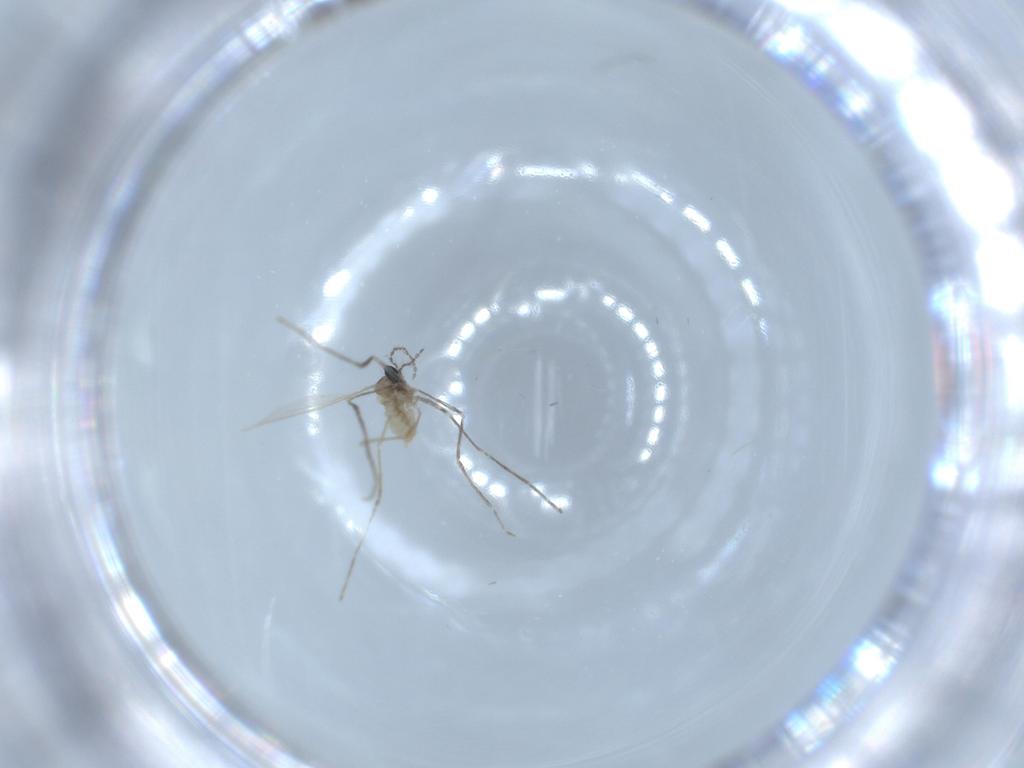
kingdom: Animalia
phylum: Arthropoda
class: Insecta
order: Diptera
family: Cecidomyiidae
